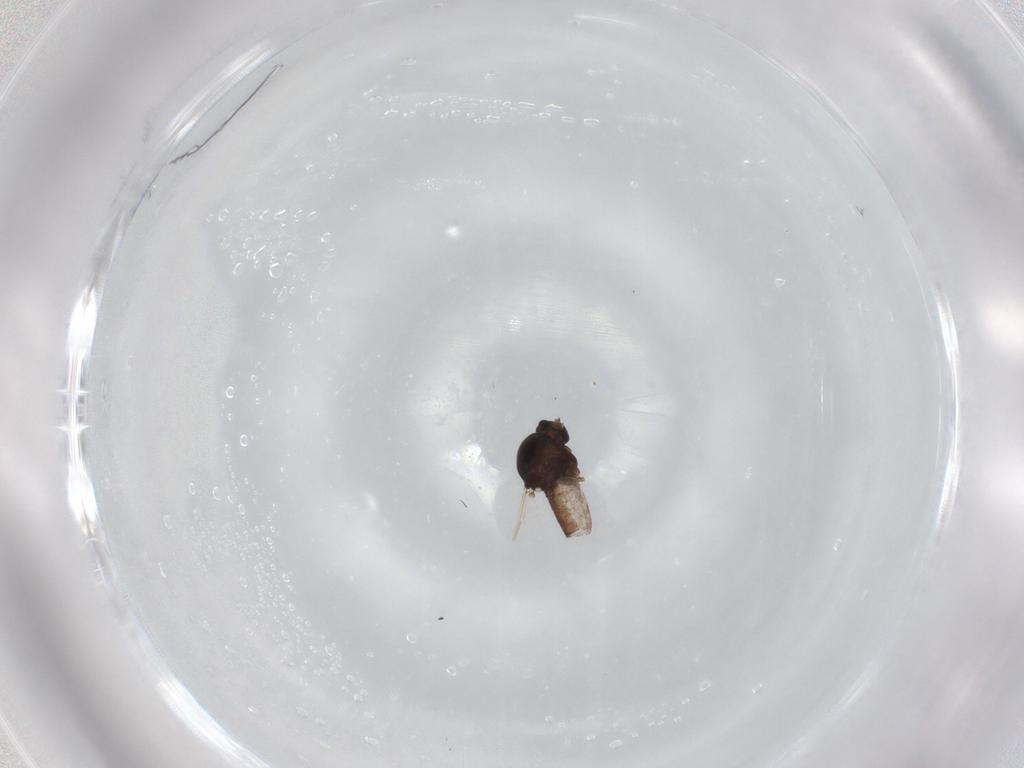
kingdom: Animalia
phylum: Arthropoda
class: Insecta
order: Diptera
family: Ceratopogonidae
